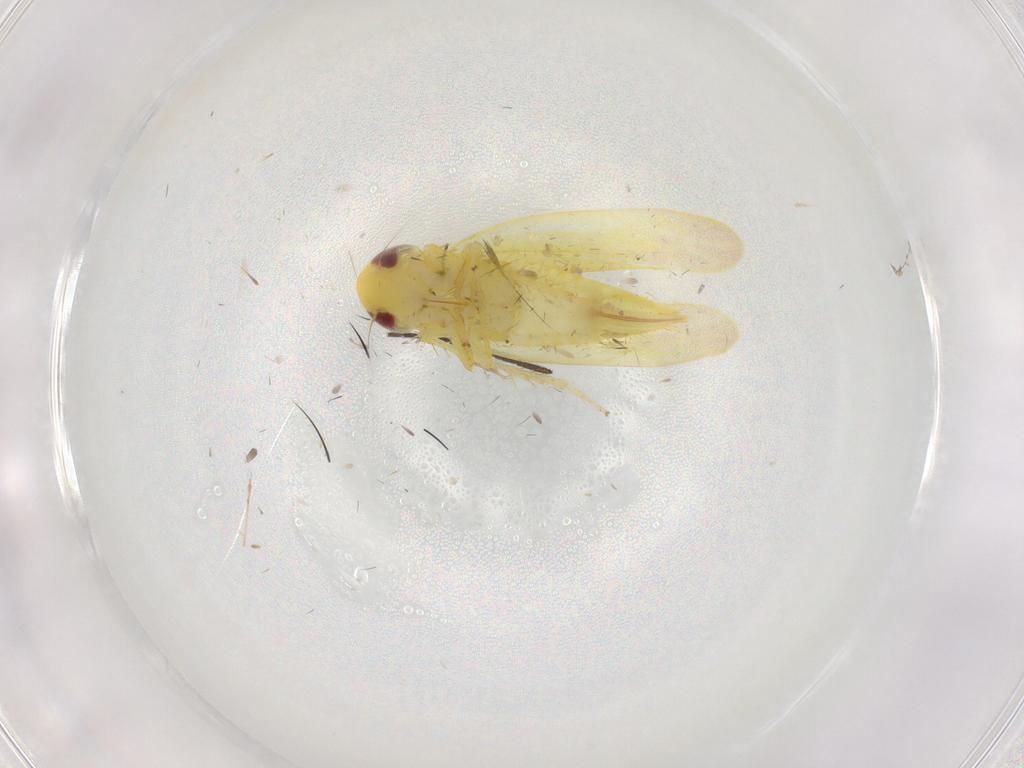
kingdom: Animalia
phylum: Arthropoda
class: Insecta
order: Hemiptera
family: Cicadellidae
